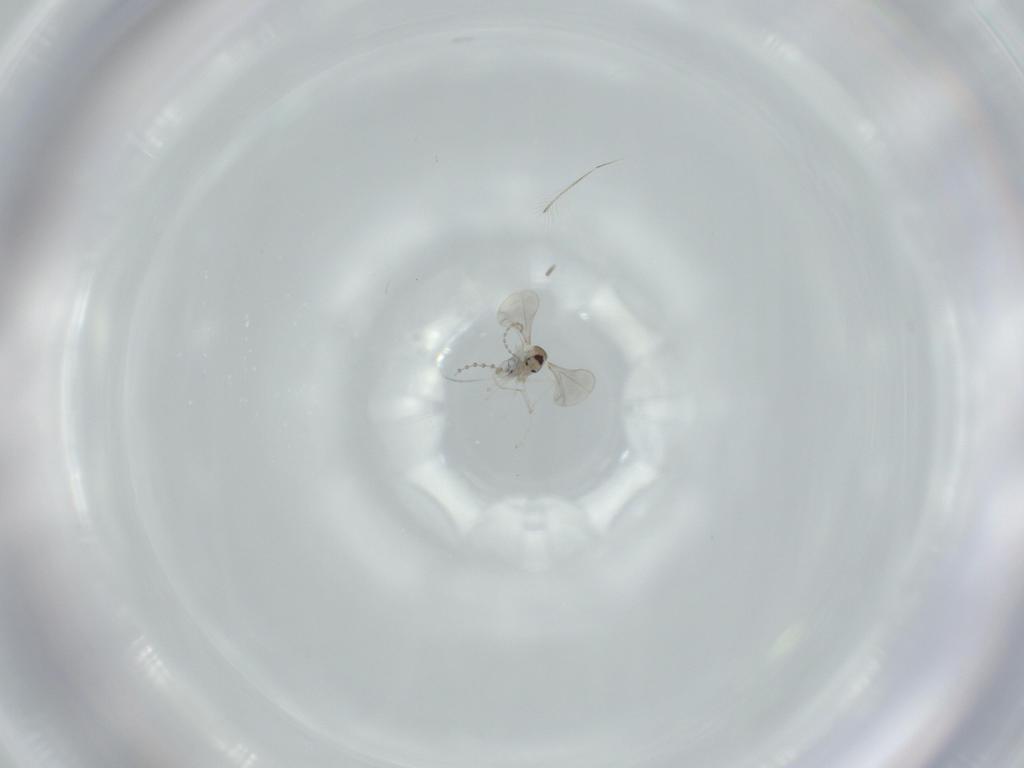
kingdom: Animalia
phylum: Arthropoda
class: Insecta
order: Diptera
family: Cecidomyiidae
